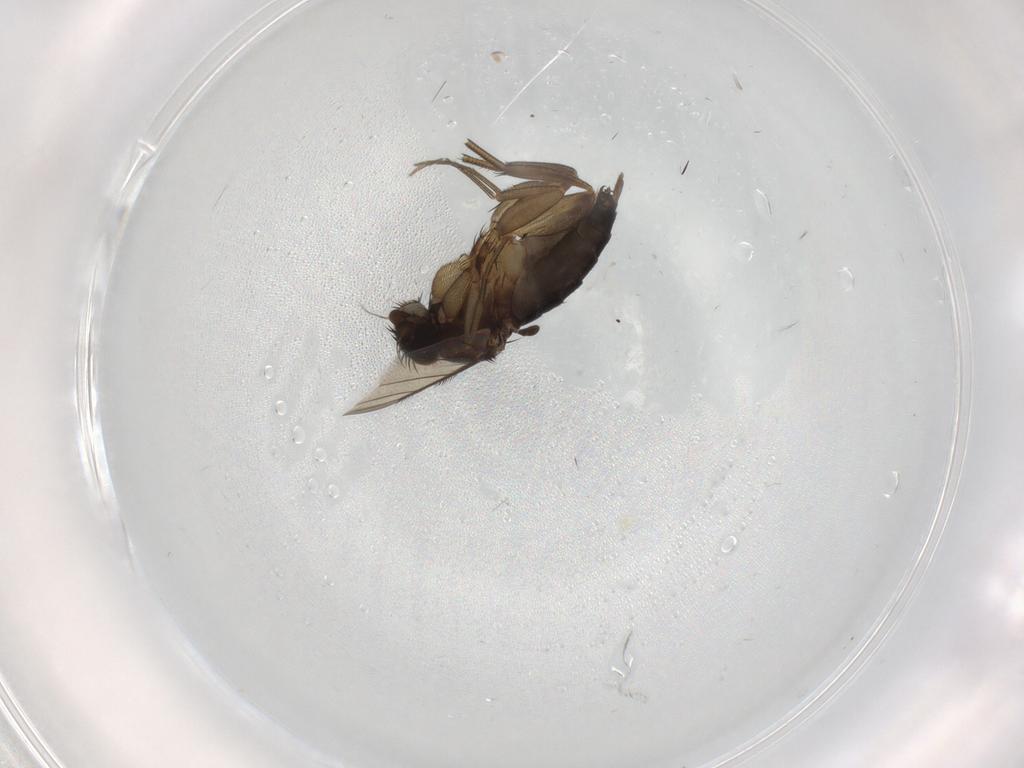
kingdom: Animalia
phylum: Arthropoda
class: Insecta
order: Diptera
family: Phoridae
